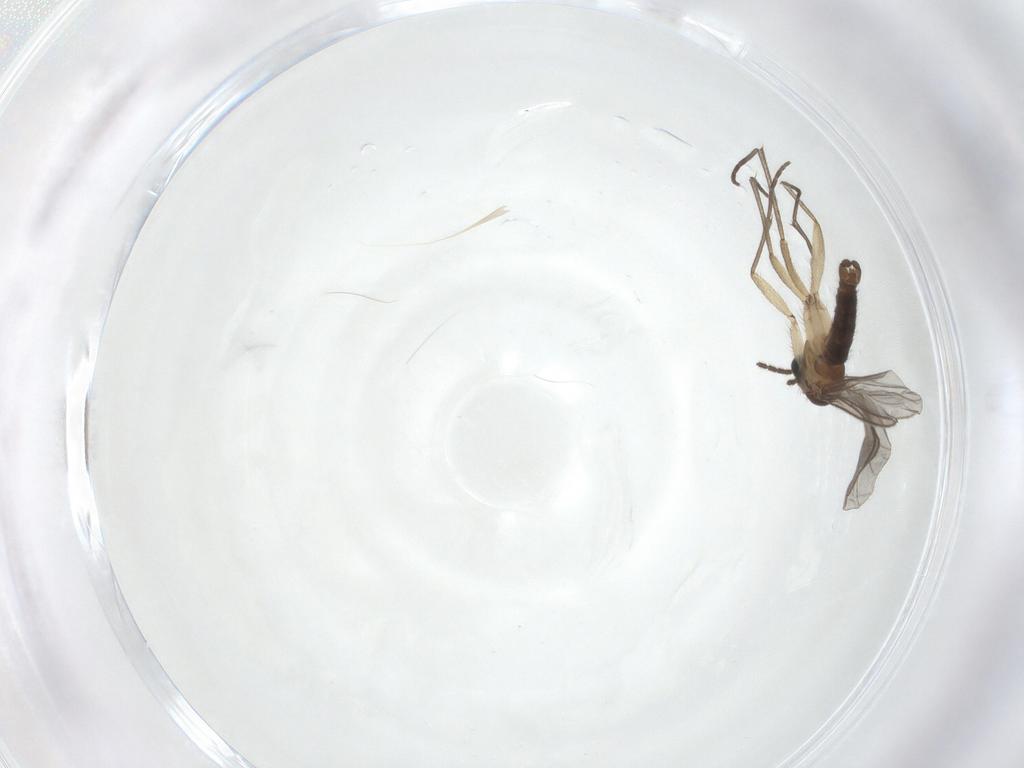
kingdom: Animalia
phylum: Arthropoda
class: Insecta
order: Diptera
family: Sciaridae
